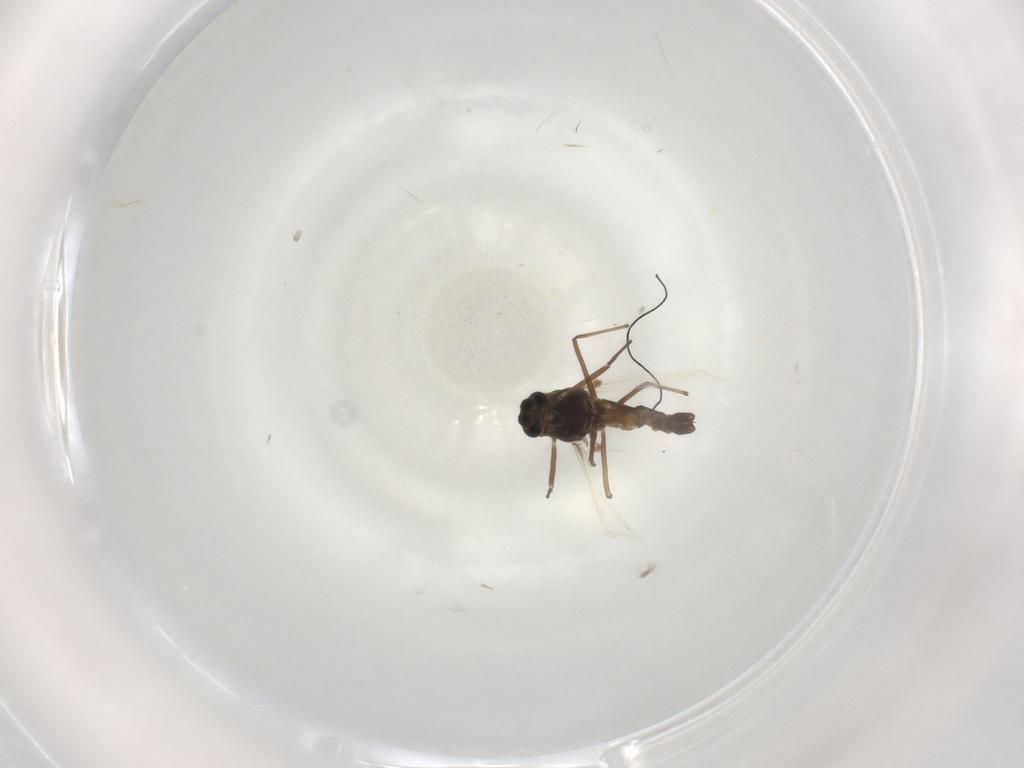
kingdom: Animalia
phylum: Arthropoda
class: Insecta
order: Diptera
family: Chironomidae
